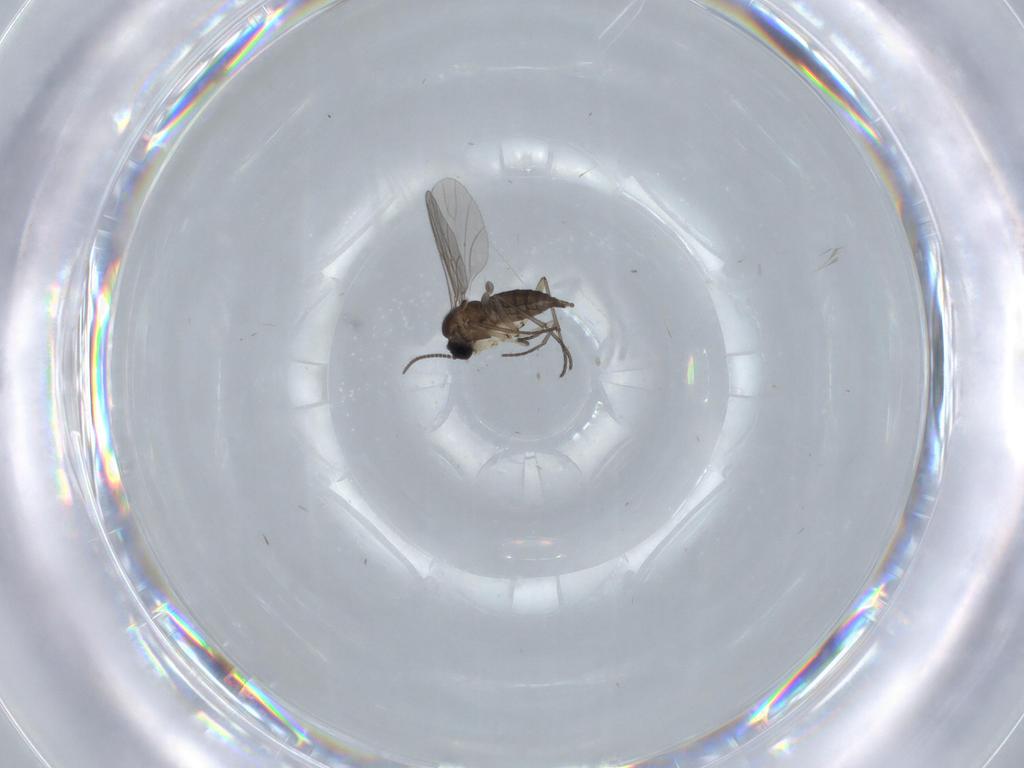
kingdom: Animalia
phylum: Arthropoda
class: Insecta
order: Diptera
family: Sciaridae
